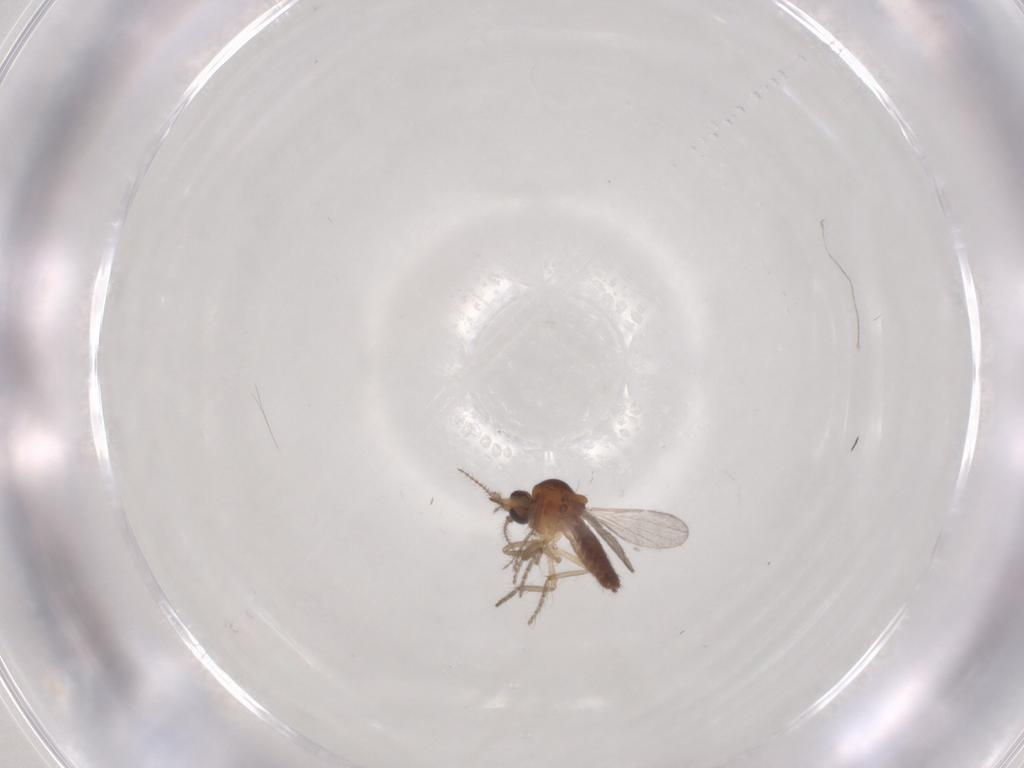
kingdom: Animalia
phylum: Arthropoda
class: Insecta
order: Diptera
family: Ceratopogonidae
